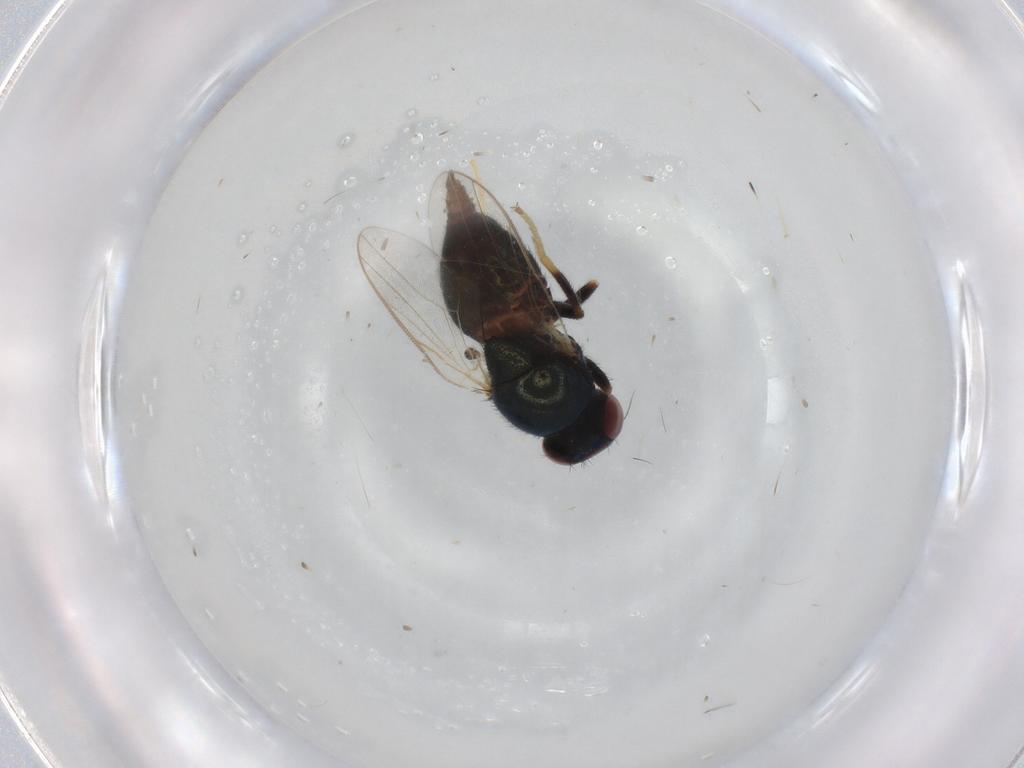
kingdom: Animalia
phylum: Arthropoda
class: Insecta
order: Diptera
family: Chloropidae
